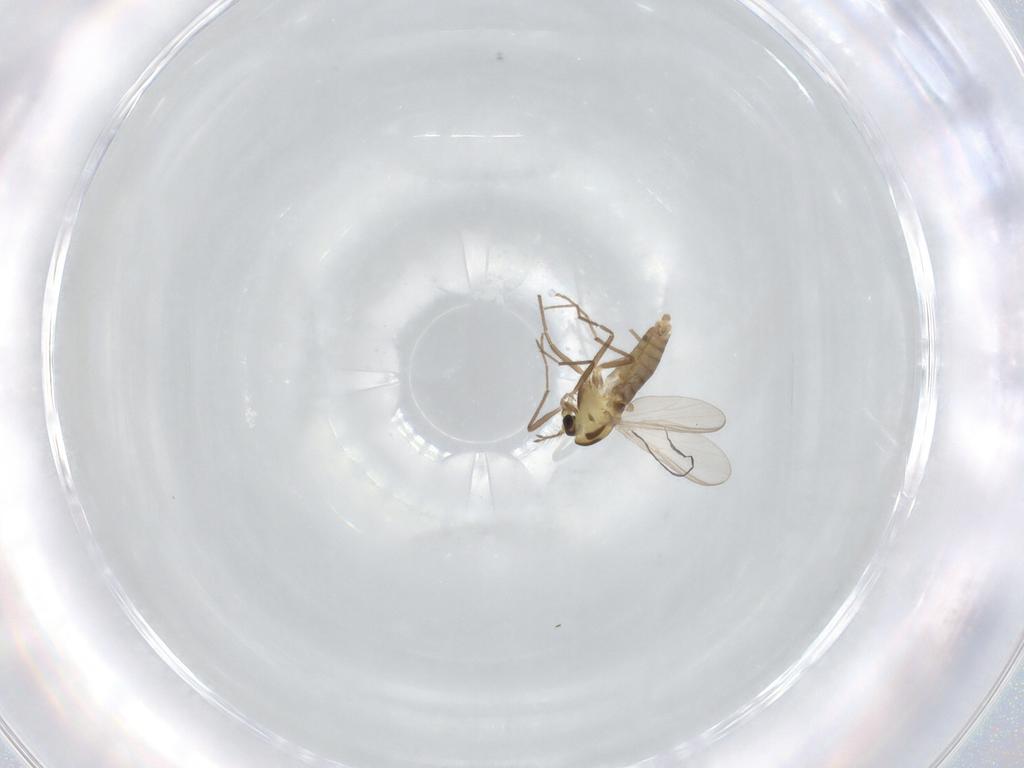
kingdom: Animalia
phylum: Arthropoda
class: Insecta
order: Diptera
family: Chironomidae
